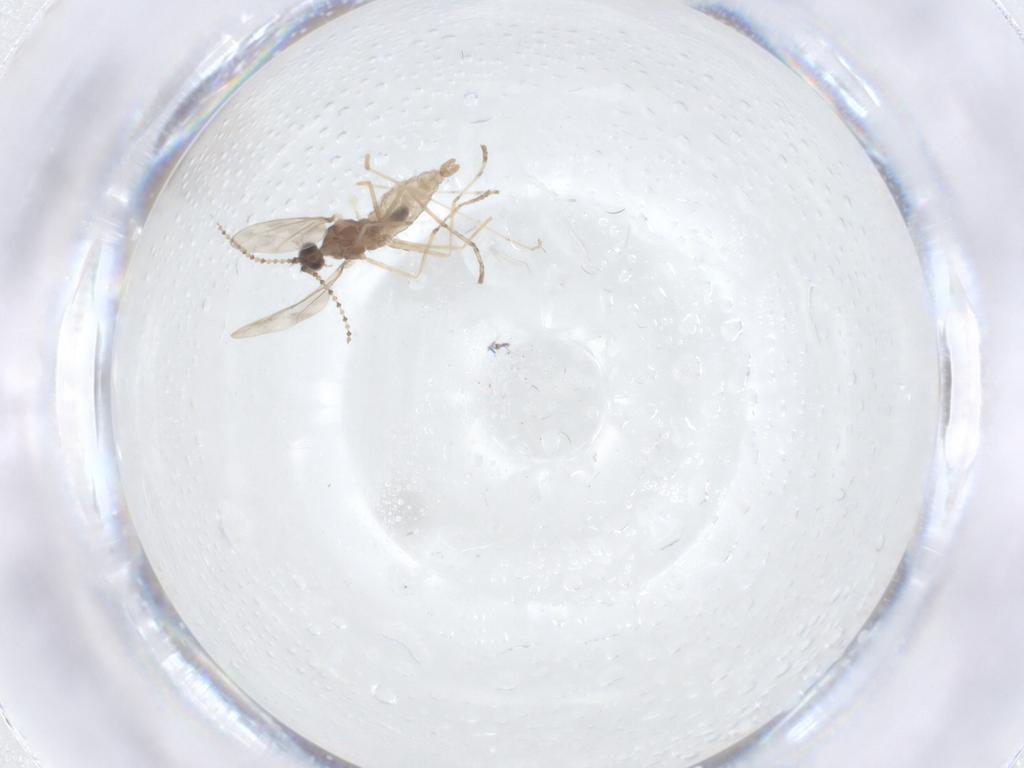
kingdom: Animalia
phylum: Arthropoda
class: Insecta
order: Diptera
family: Cecidomyiidae
